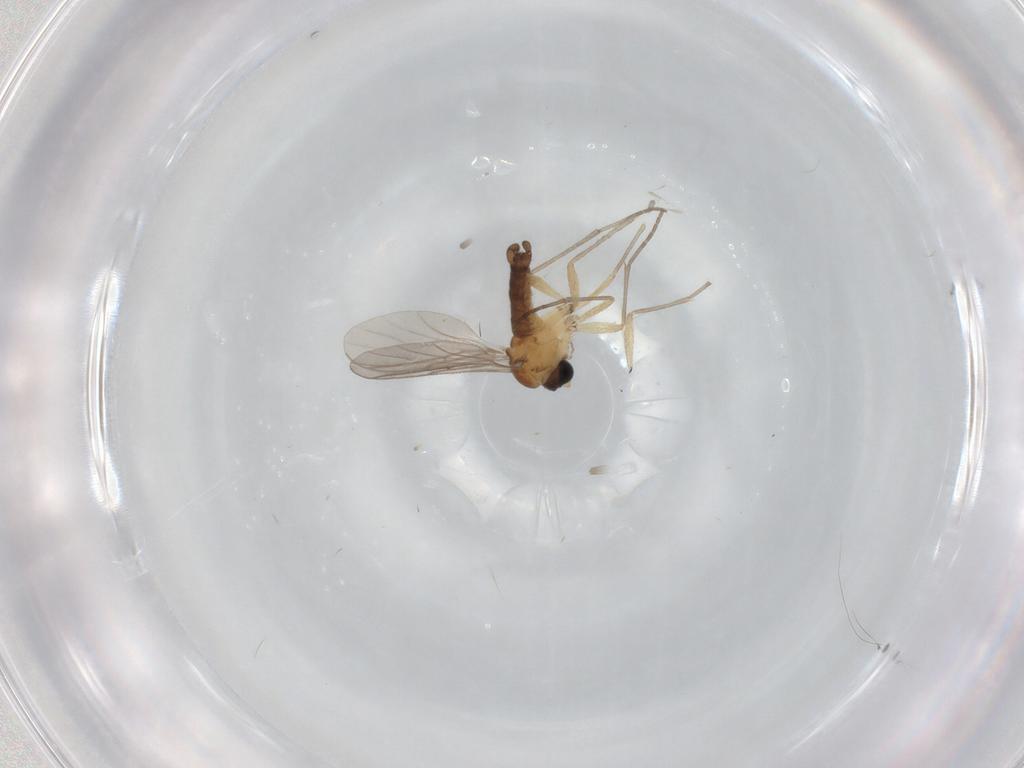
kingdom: Animalia
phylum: Arthropoda
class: Insecta
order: Diptera
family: Sciaridae
